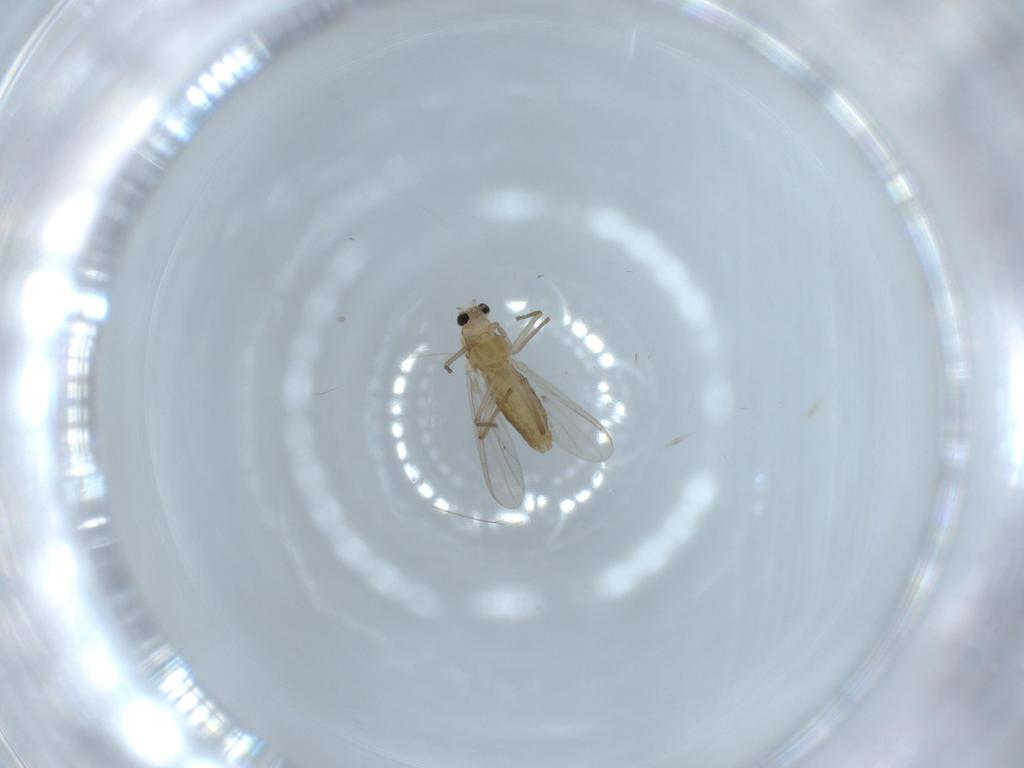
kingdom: Animalia
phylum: Arthropoda
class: Insecta
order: Diptera
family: Chironomidae
